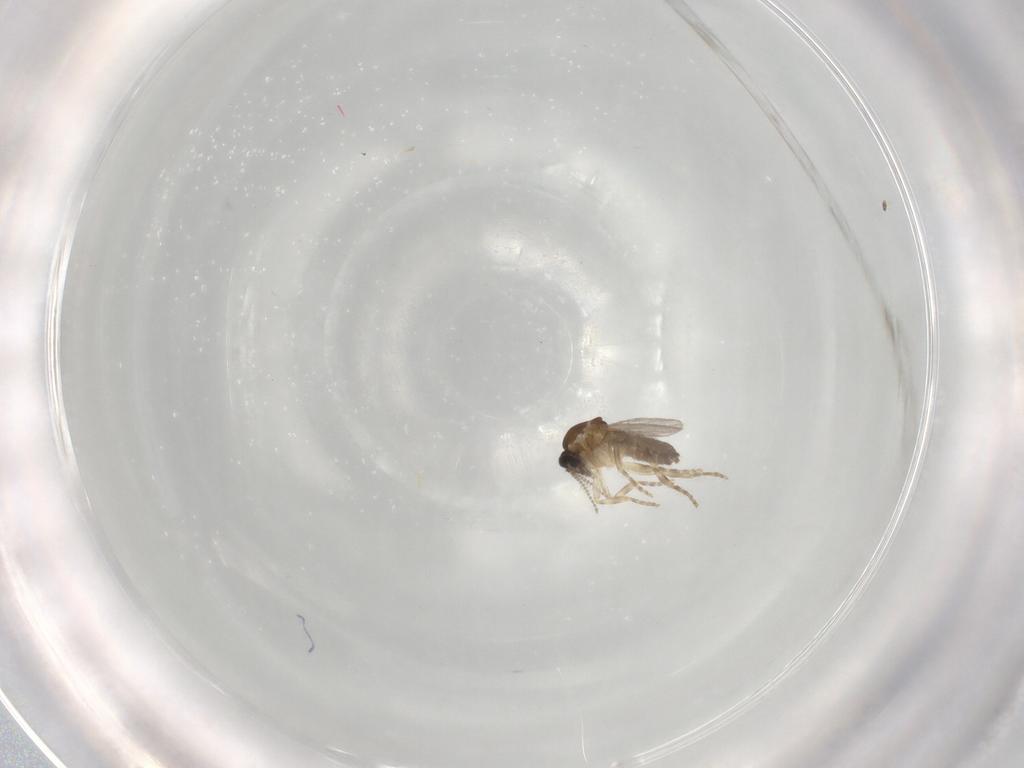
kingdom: Animalia
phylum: Arthropoda
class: Insecta
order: Diptera
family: Ceratopogonidae
